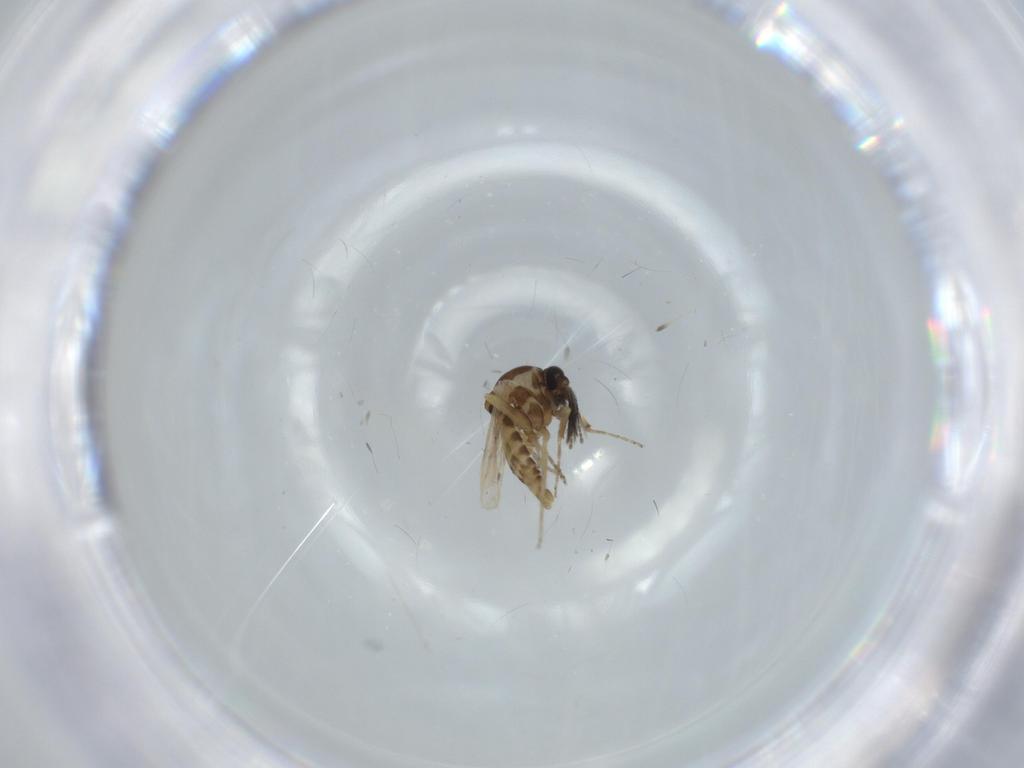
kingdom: Animalia
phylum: Arthropoda
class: Insecta
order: Diptera
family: Ceratopogonidae
